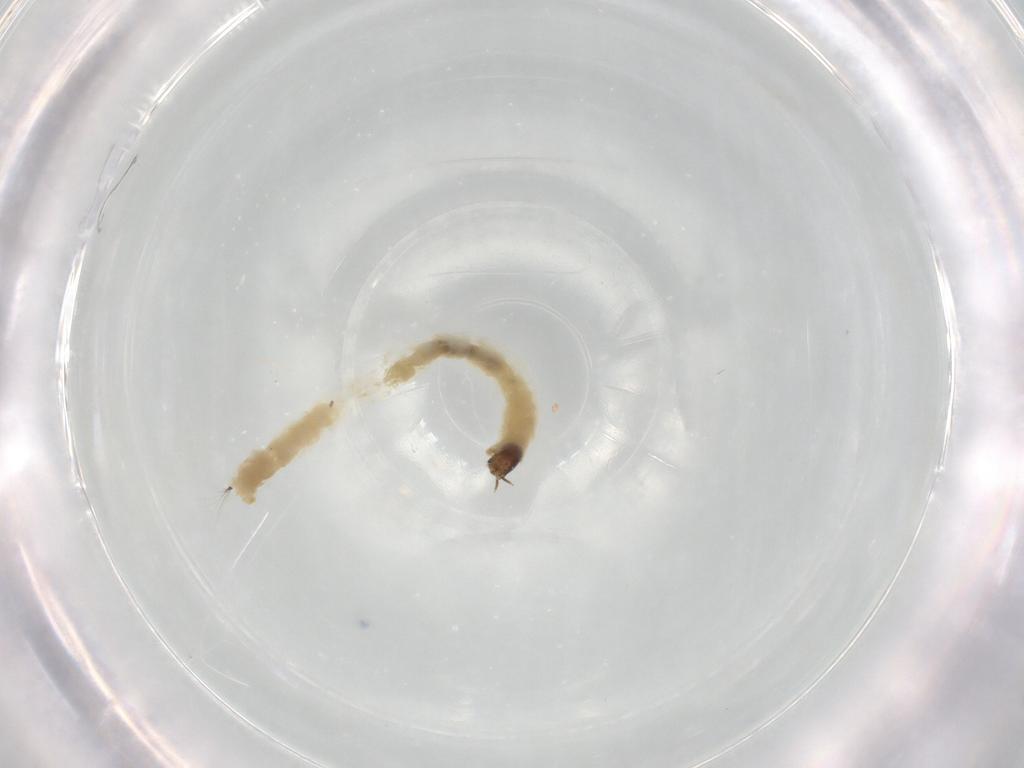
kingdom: Animalia
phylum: Arthropoda
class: Insecta
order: Diptera
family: Chironomidae
